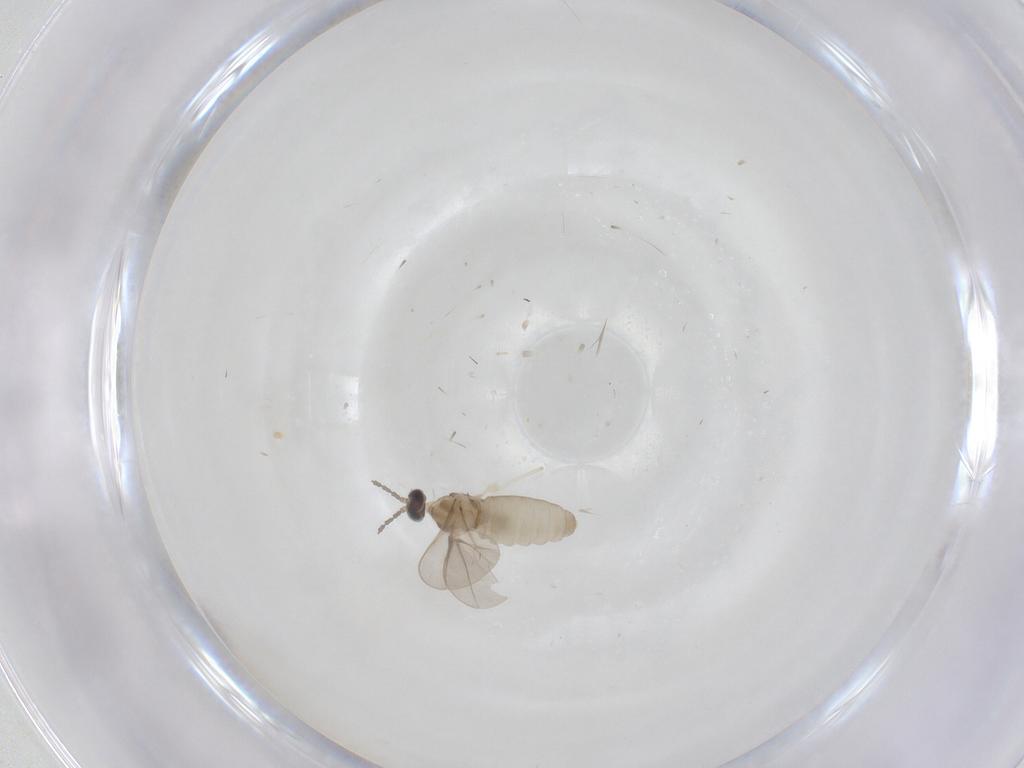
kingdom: Animalia
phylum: Arthropoda
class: Insecta
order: Diptera
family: Cecidomyiidae
